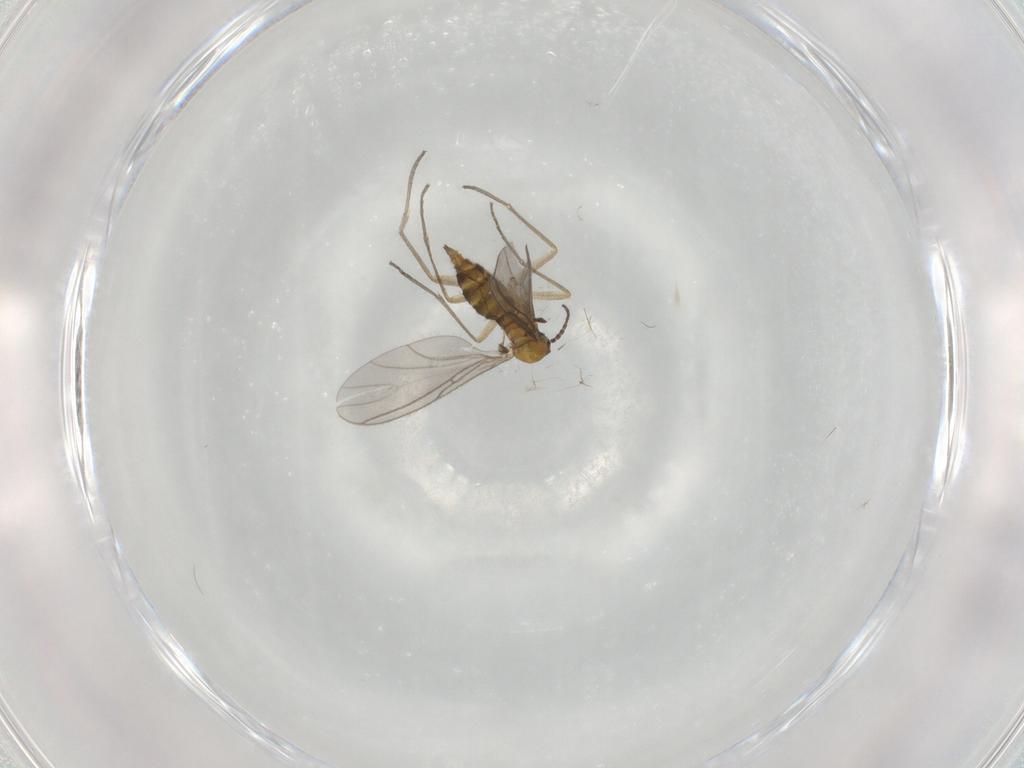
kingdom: Animalia
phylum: Arthropoda
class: Insecta
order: Diptera
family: Sciaridae
